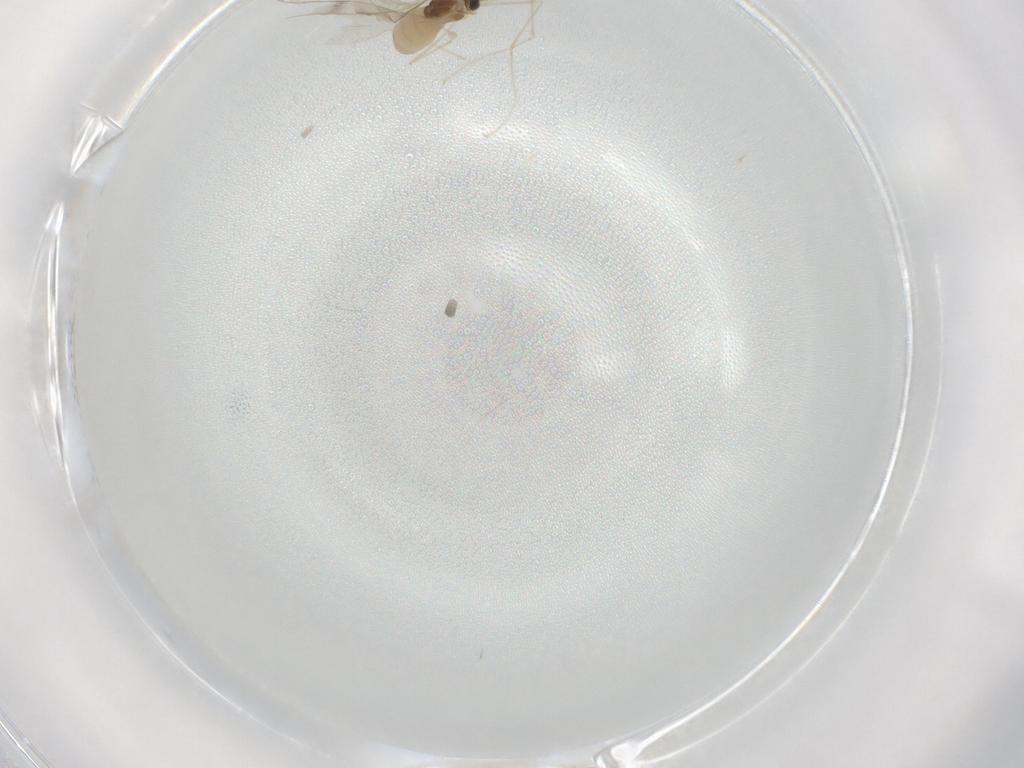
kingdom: Animalia
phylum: Arthropoda
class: Insecta
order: Diptera
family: Cecidomyiidae
